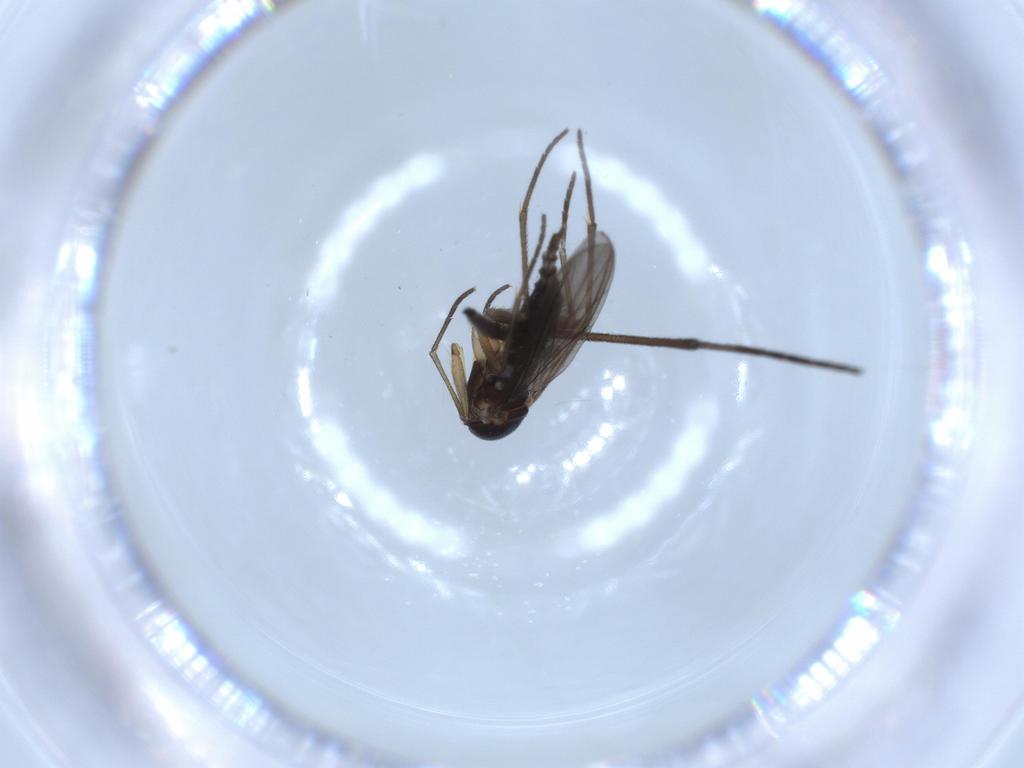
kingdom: Animalia
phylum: Arthropoda
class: Insecta
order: Diptera
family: Sciaridae
